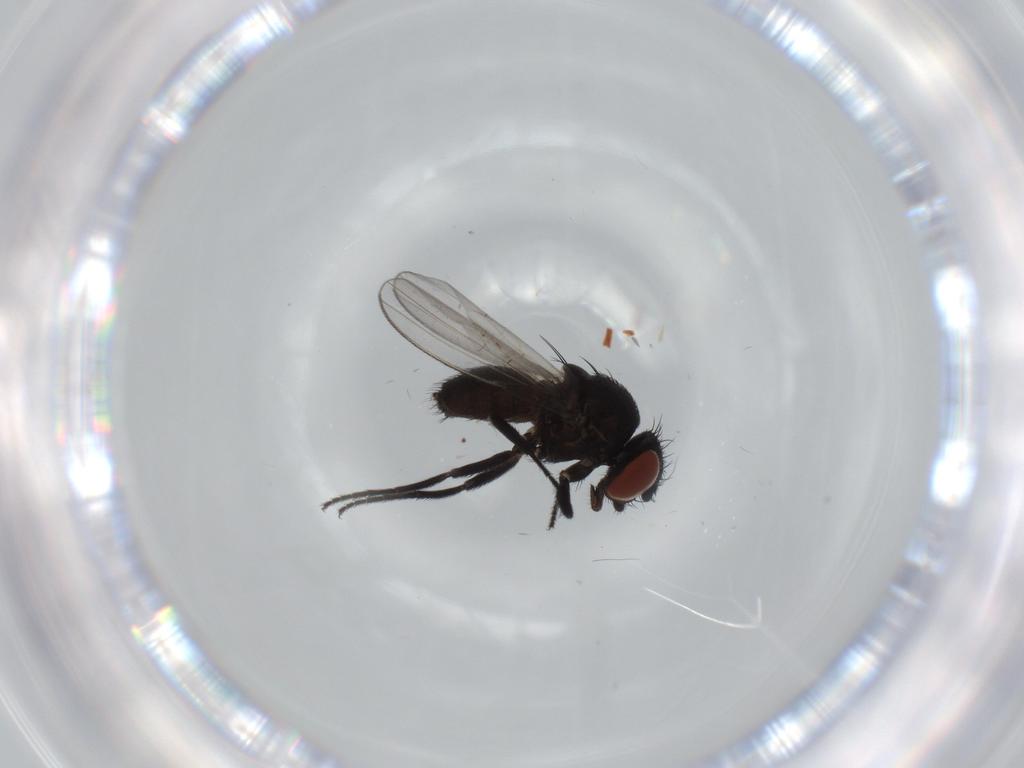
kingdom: Animalia
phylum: Arthropoda
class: Insecta
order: Diptera
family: Milichiidae
